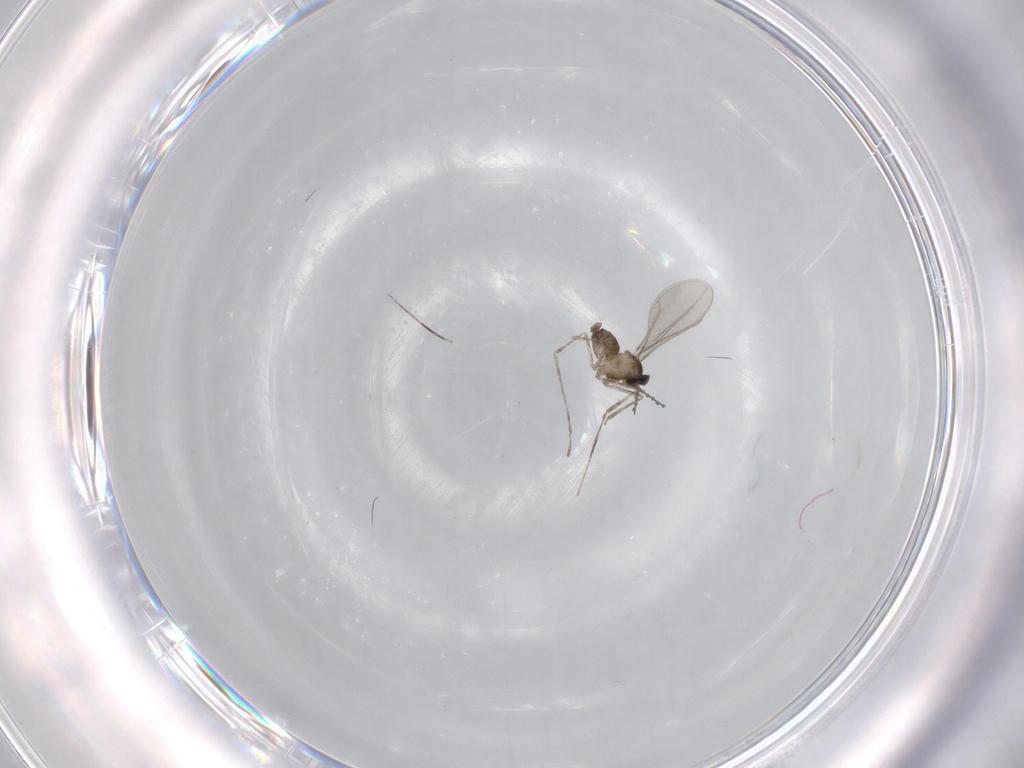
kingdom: Animalia
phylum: Arthropoda
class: Insecta
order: Diptera
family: Cecidomyiidae
